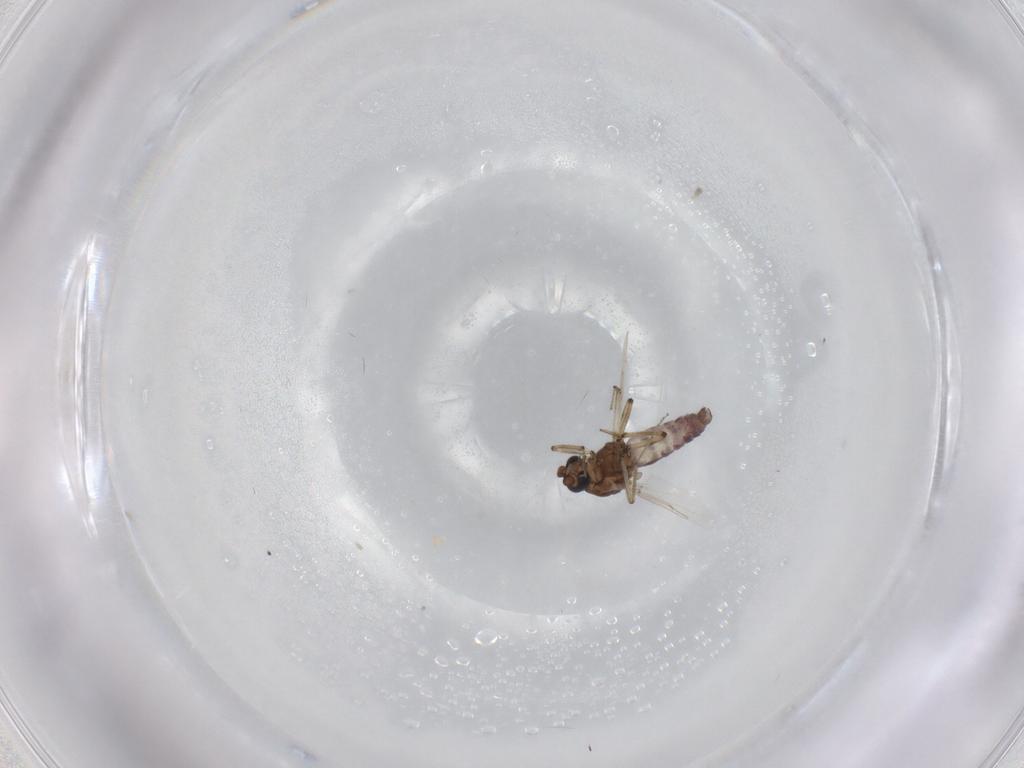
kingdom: Animalia
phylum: Arthropoda
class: Insecta
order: Diptera
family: Ceratopogonidae
